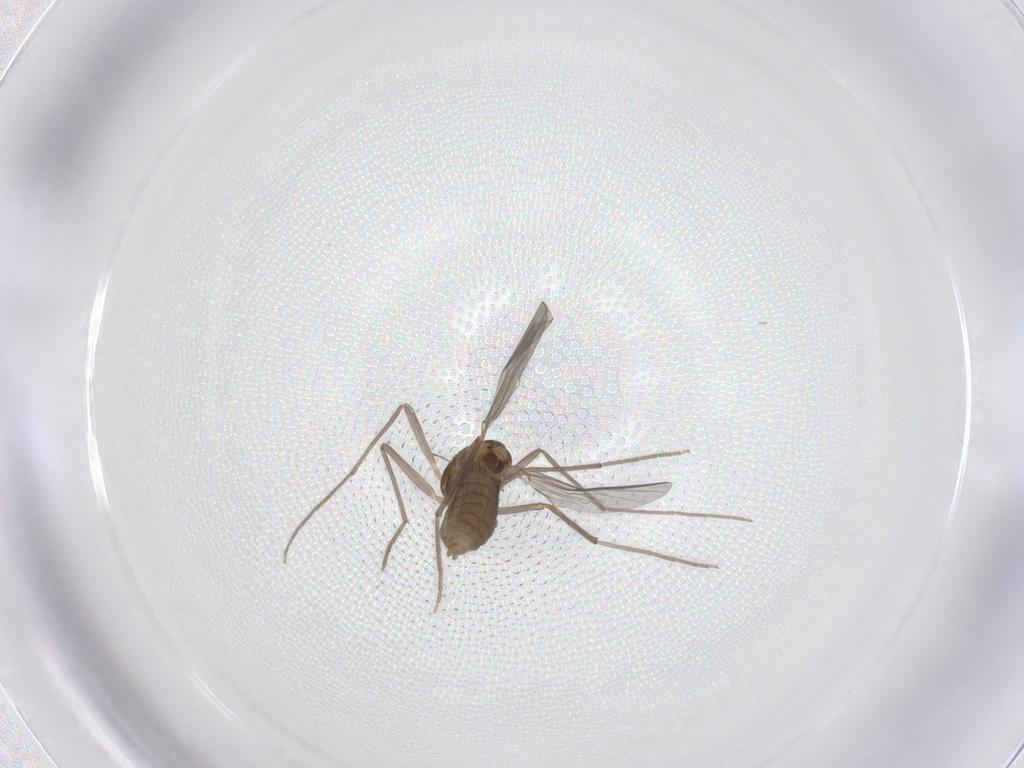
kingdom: Animalia
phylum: Arthropoda
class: Insecta
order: Diptera
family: Chironomidae
